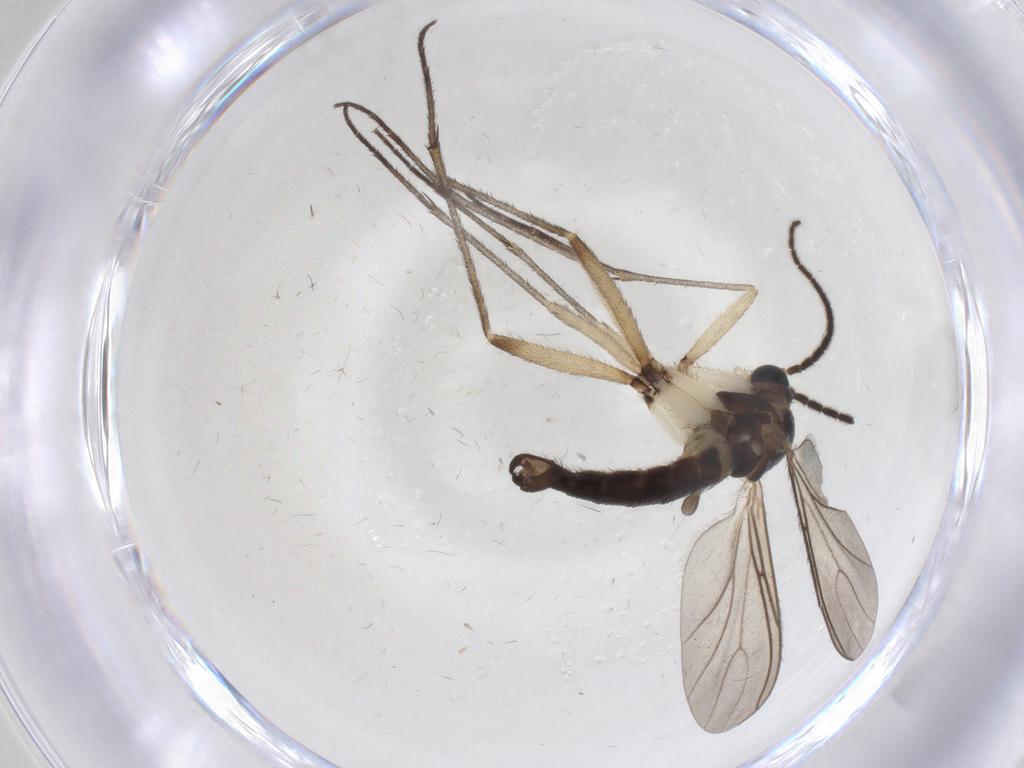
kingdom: Animalia
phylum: Arthropoda
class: Insecta
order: Diptera
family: Sciaridae
